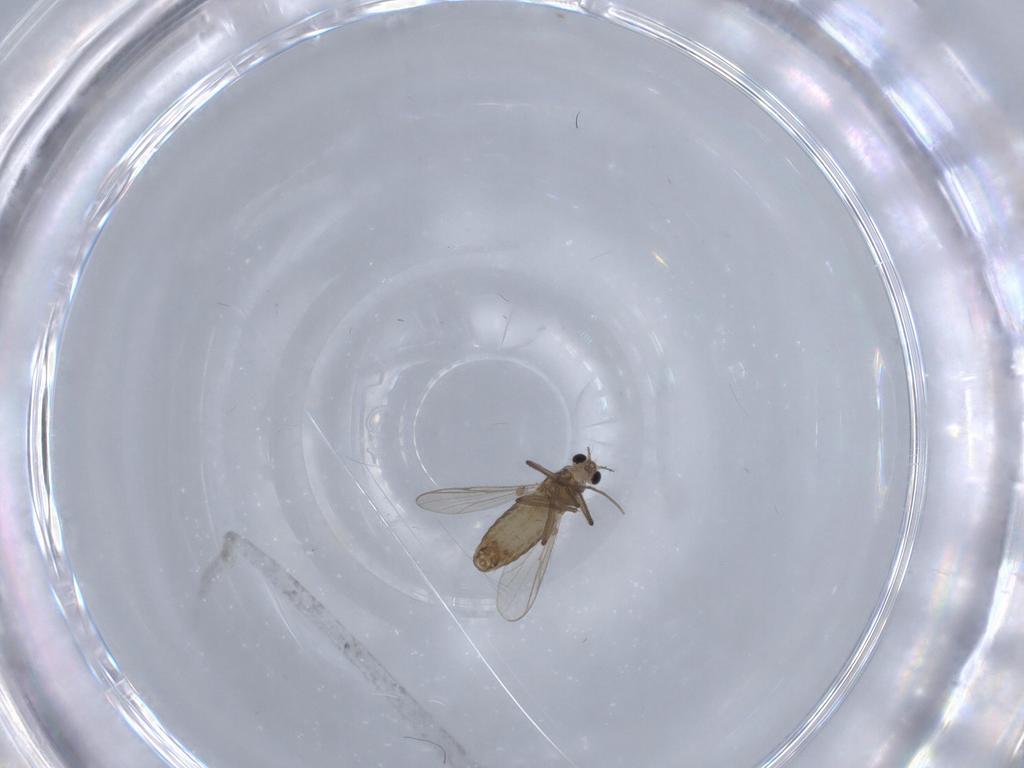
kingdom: Animalia
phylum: Arthropoda
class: Insecta
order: Diptera
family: Chironomidae
